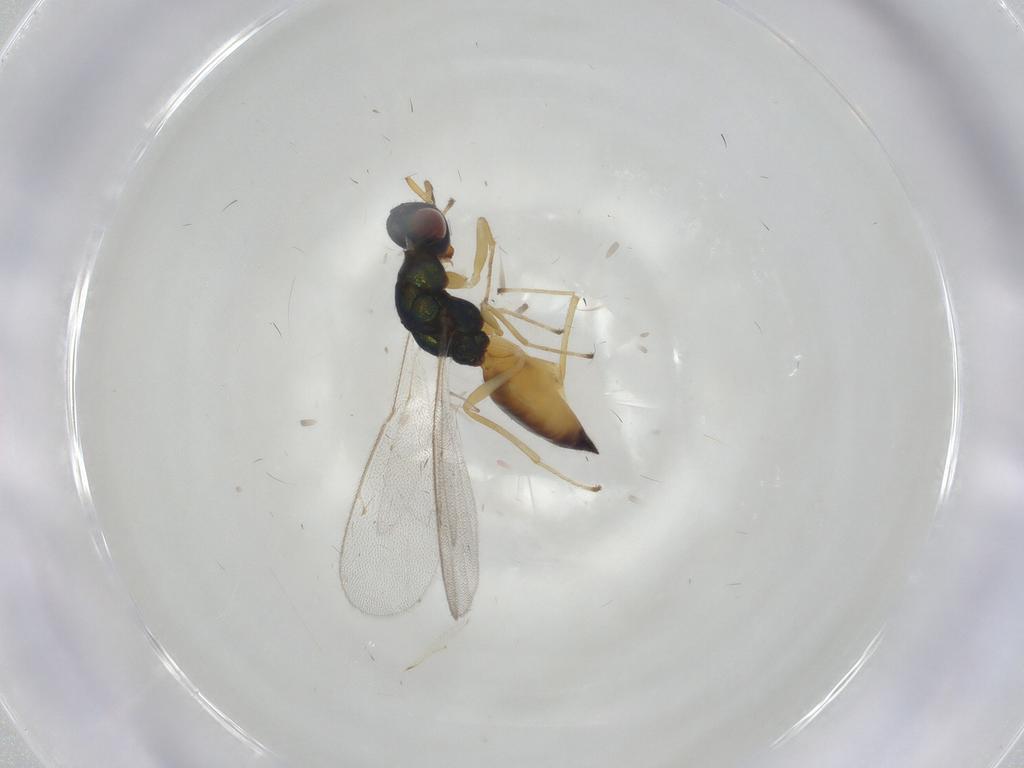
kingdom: Animalia
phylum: Arthropoda
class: Insecta
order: Hymenoptera
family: Pteromalidae
